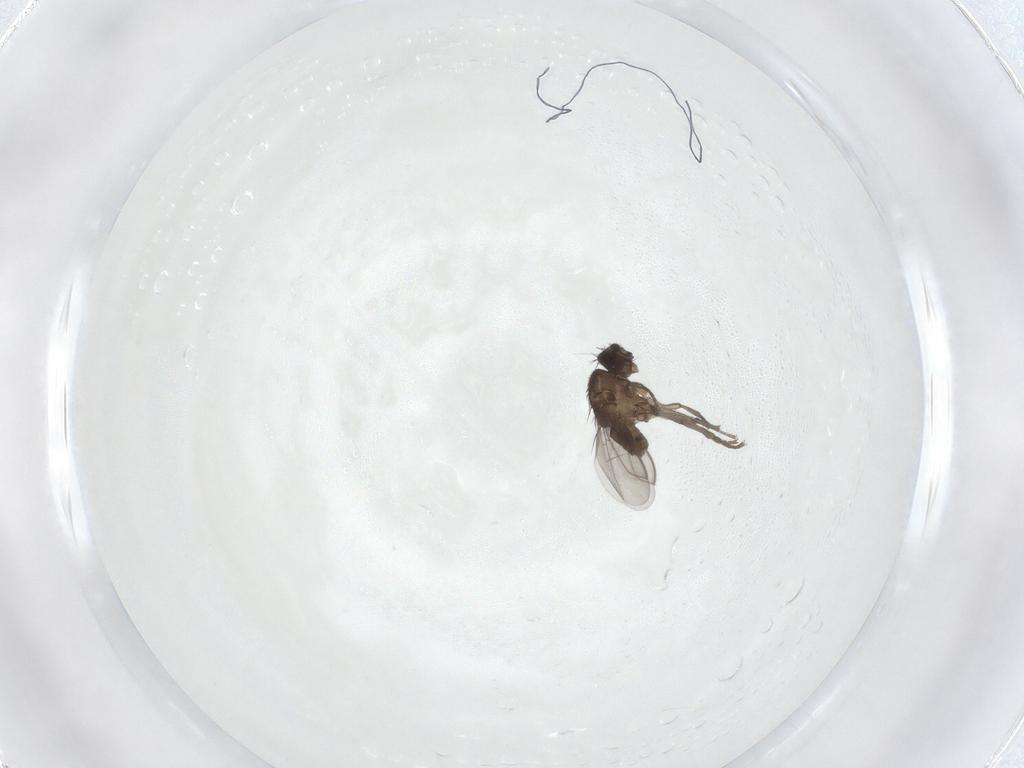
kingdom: Animalia
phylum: Arthropoda
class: Insecta
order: Diptera
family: Sphaeroceridae
